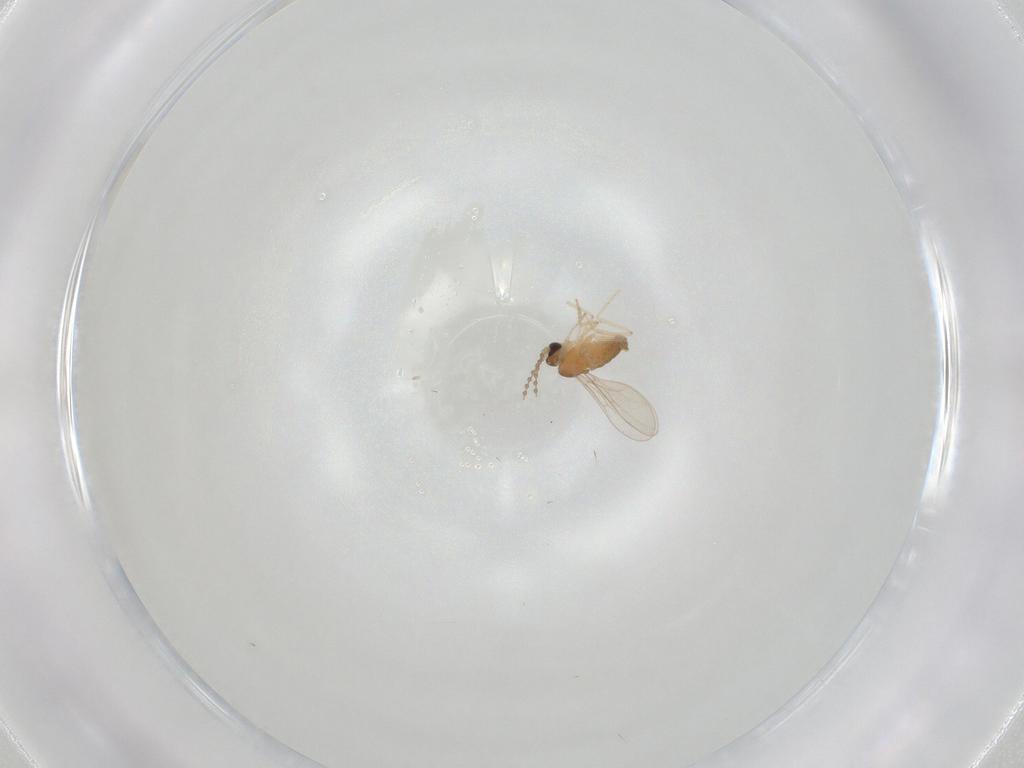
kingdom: Animalia
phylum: Arthropoda
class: Insecta
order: Diptera
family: Cecidomyiidae
